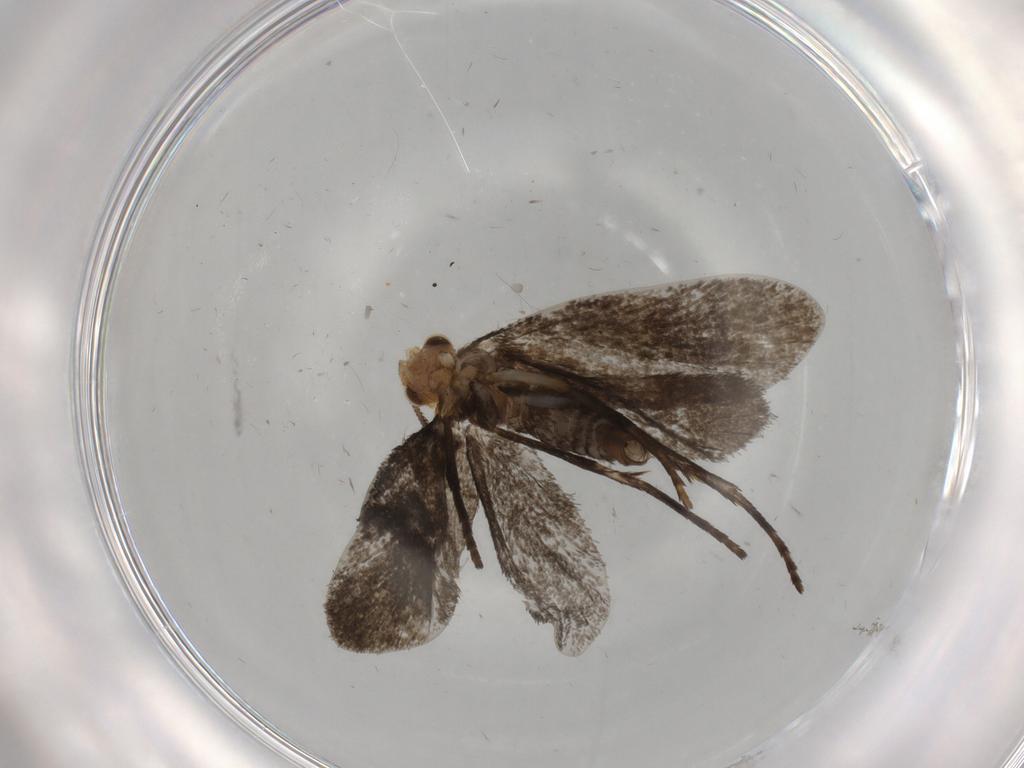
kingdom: Animalia
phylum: Arthropoda
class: Insecta
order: Lepidoptera
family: Micropterigidae
